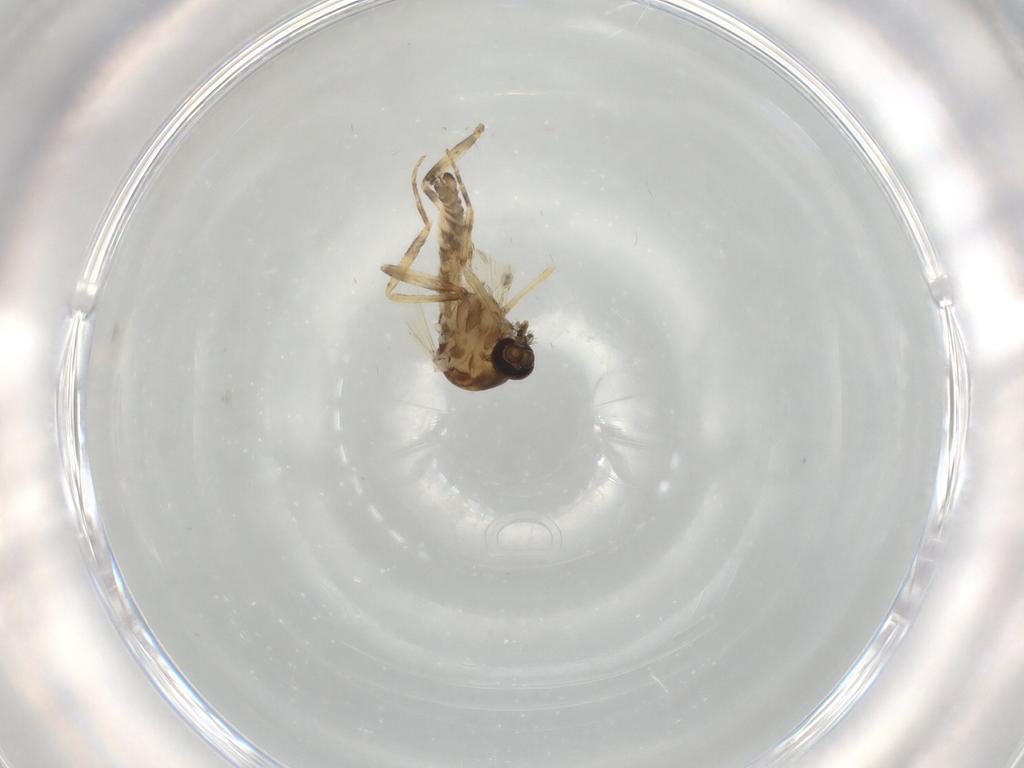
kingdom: Animalia
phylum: Arthropoda
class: Insecta
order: Diptera
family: Ceratopogonidae
